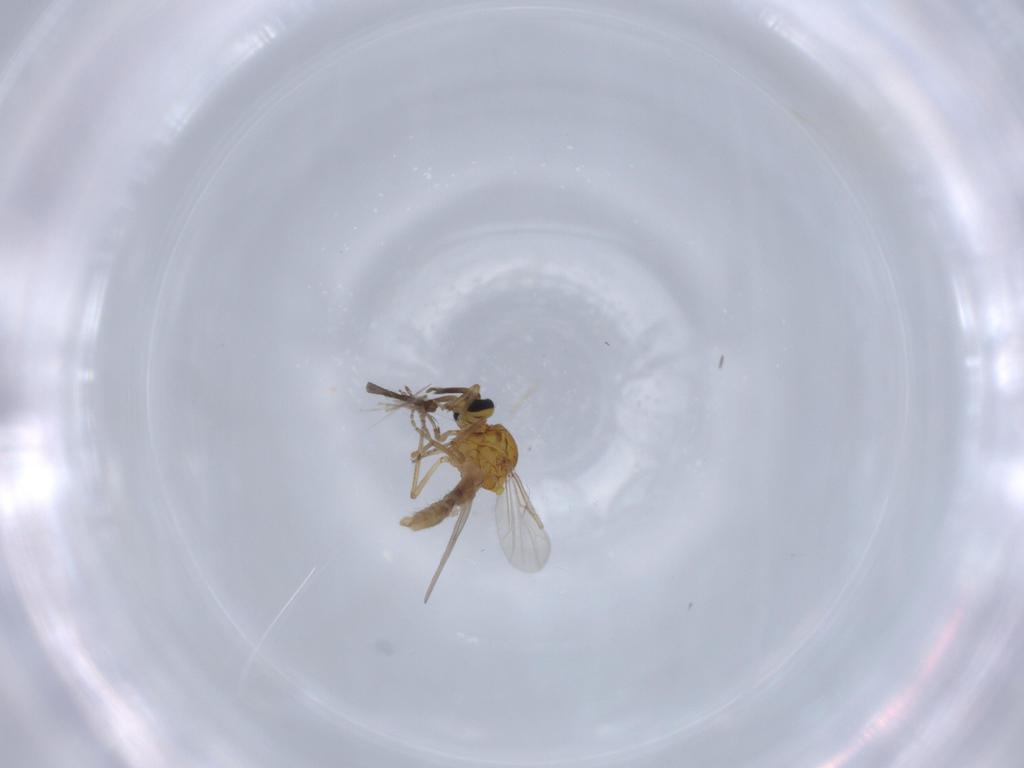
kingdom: Animalia
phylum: Arthropoda
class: Insecta
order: Diptera
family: Ceratopogonidae
